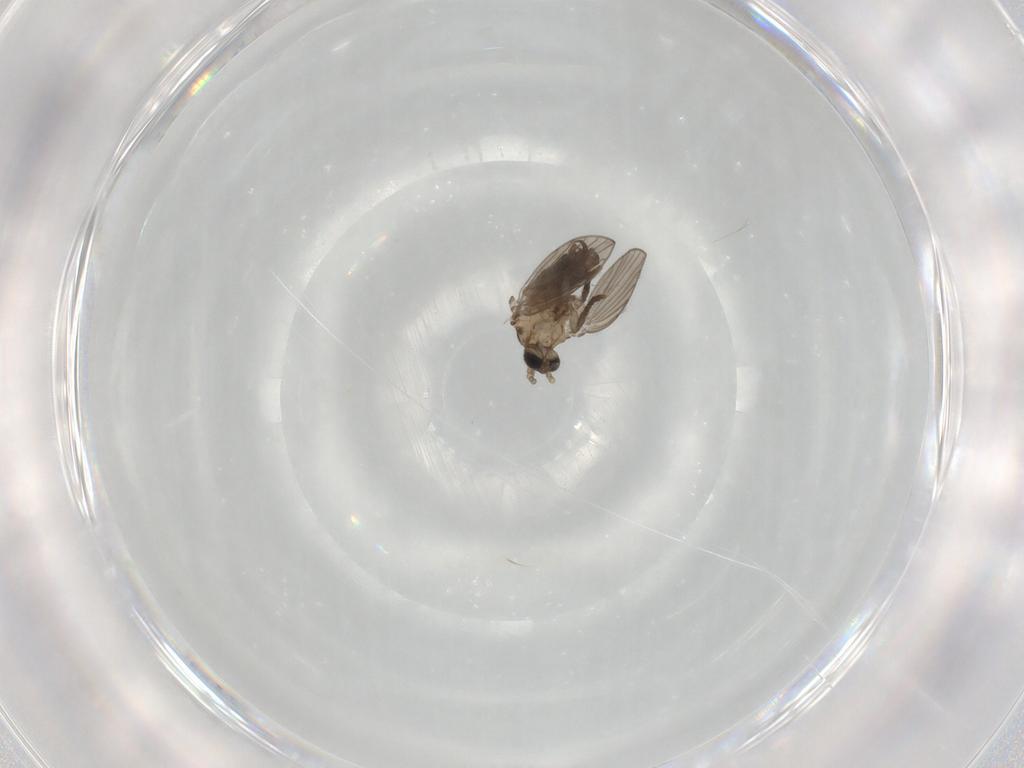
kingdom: Animalia
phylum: Arthropoda
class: Insecta
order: Diptera
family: Psychodidae
